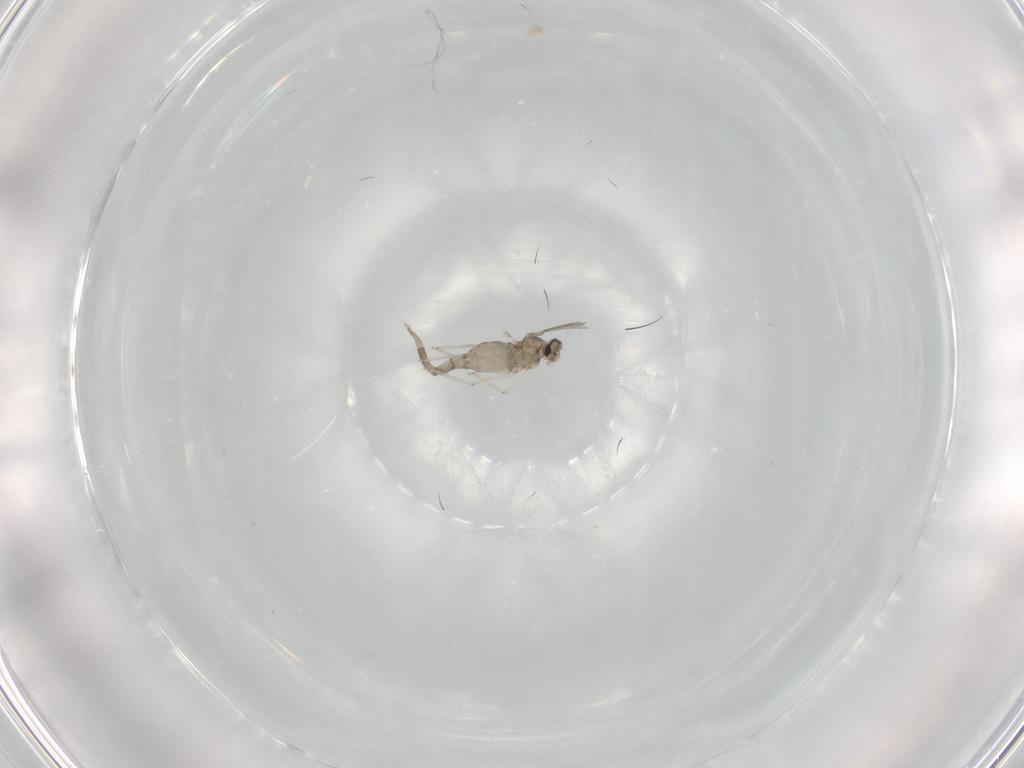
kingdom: Animalia
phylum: Arthropoda
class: Insecta
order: Diptera
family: Cecidomyiidae
